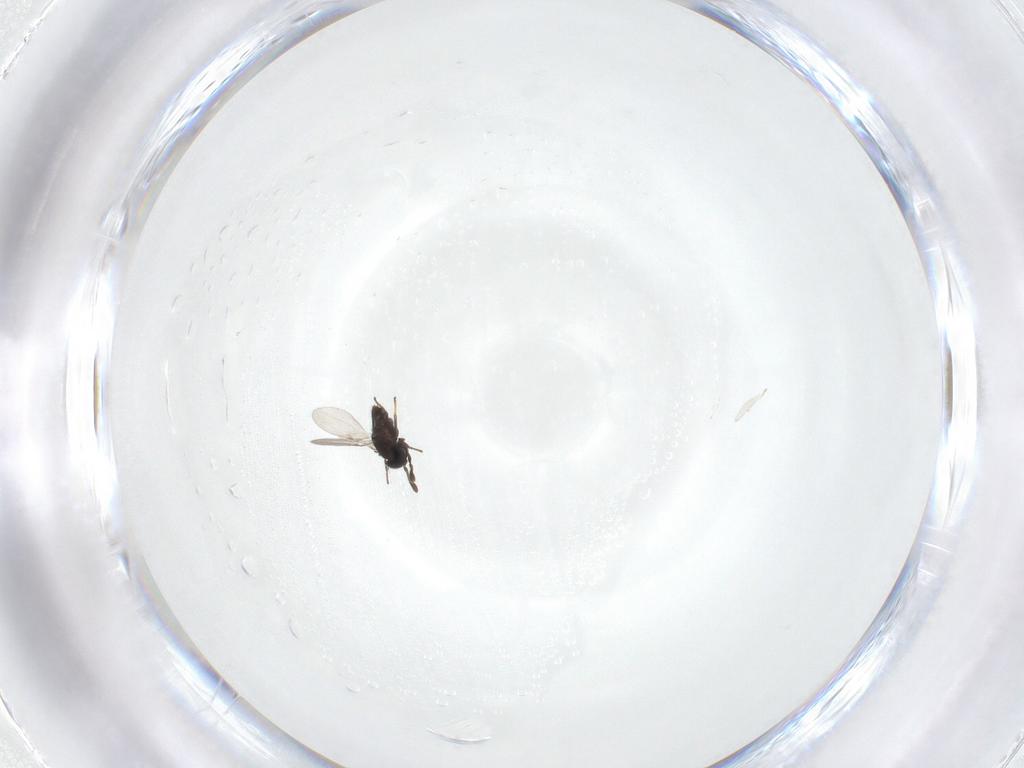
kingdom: Animalia
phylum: Arthropoda
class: Insecta
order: Hymenoptera
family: Scelionidae
